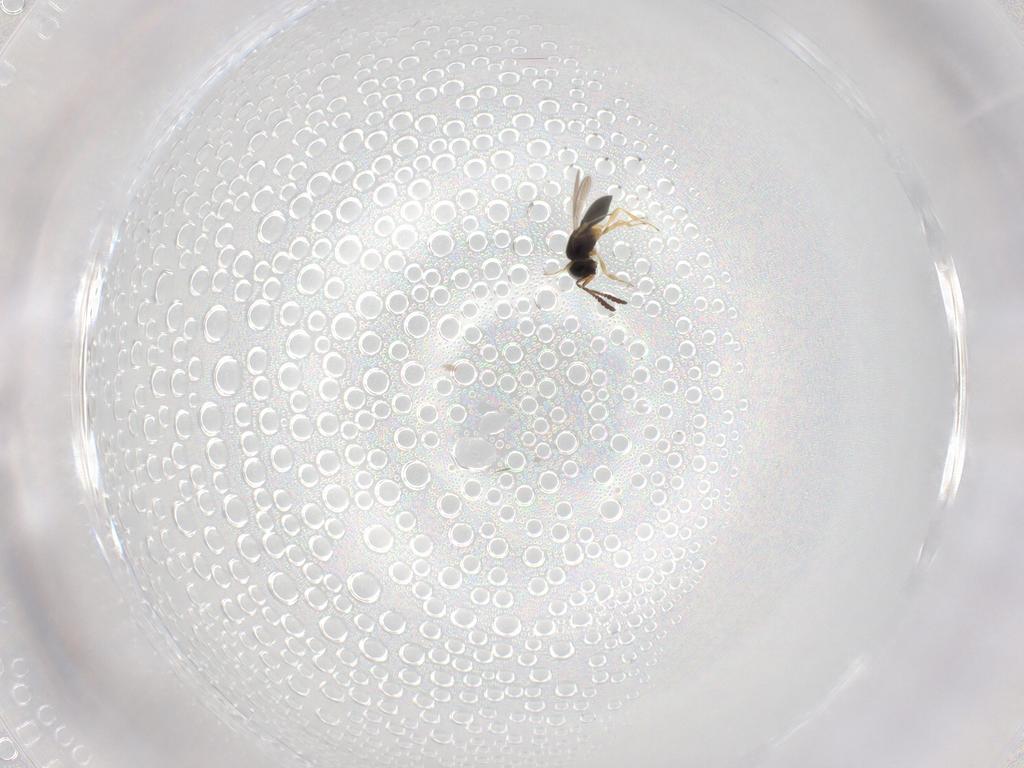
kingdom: Animalia
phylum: Arthropoda
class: Insecta
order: Hymenoptera
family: Scelionidae
